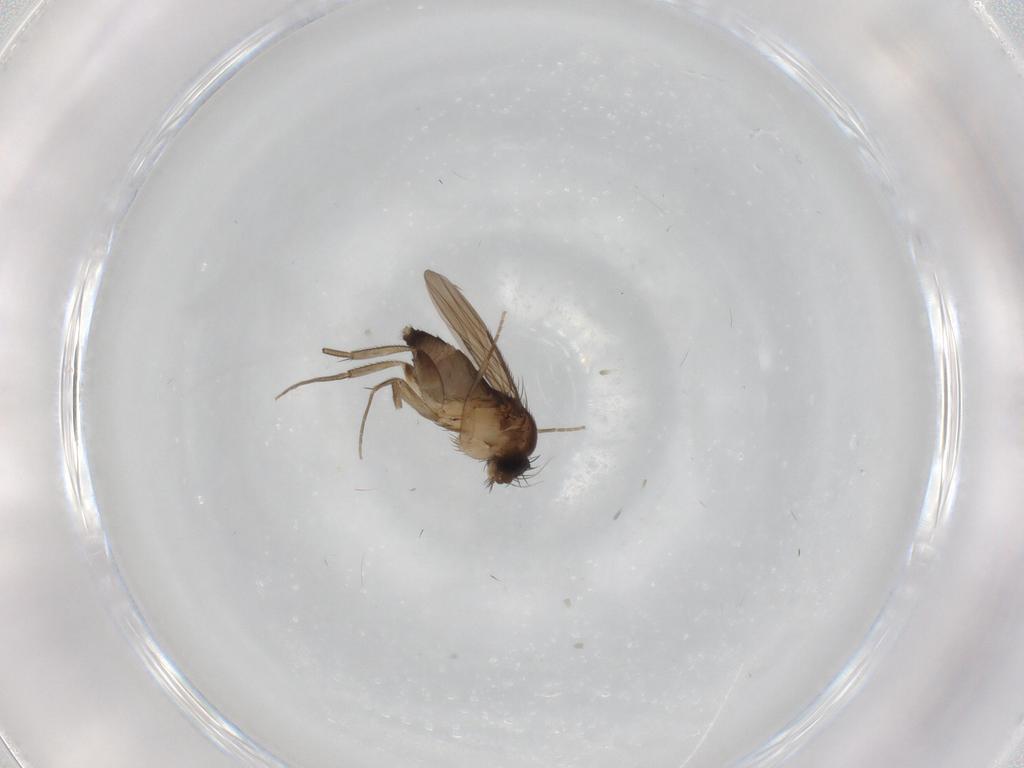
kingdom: Animalia
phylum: Arthropoda
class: Insecta
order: Diptera
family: Phoridae
